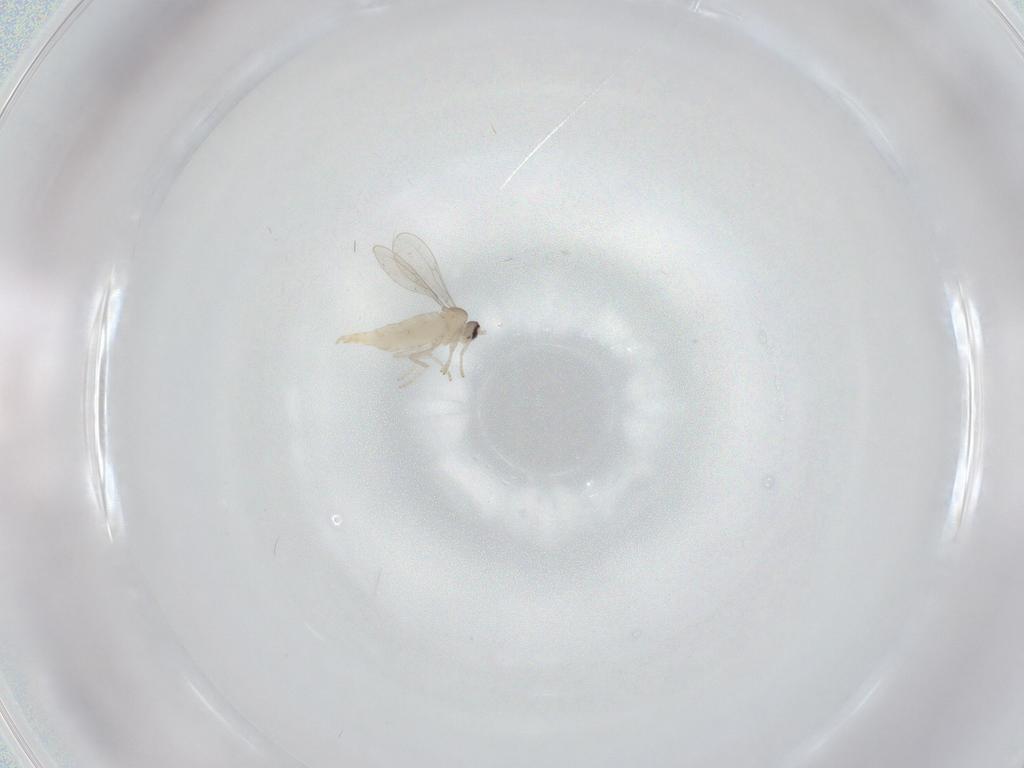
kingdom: Animalia
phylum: Arthropoda
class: Insecta
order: Diptera
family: Cecidomyiidae
